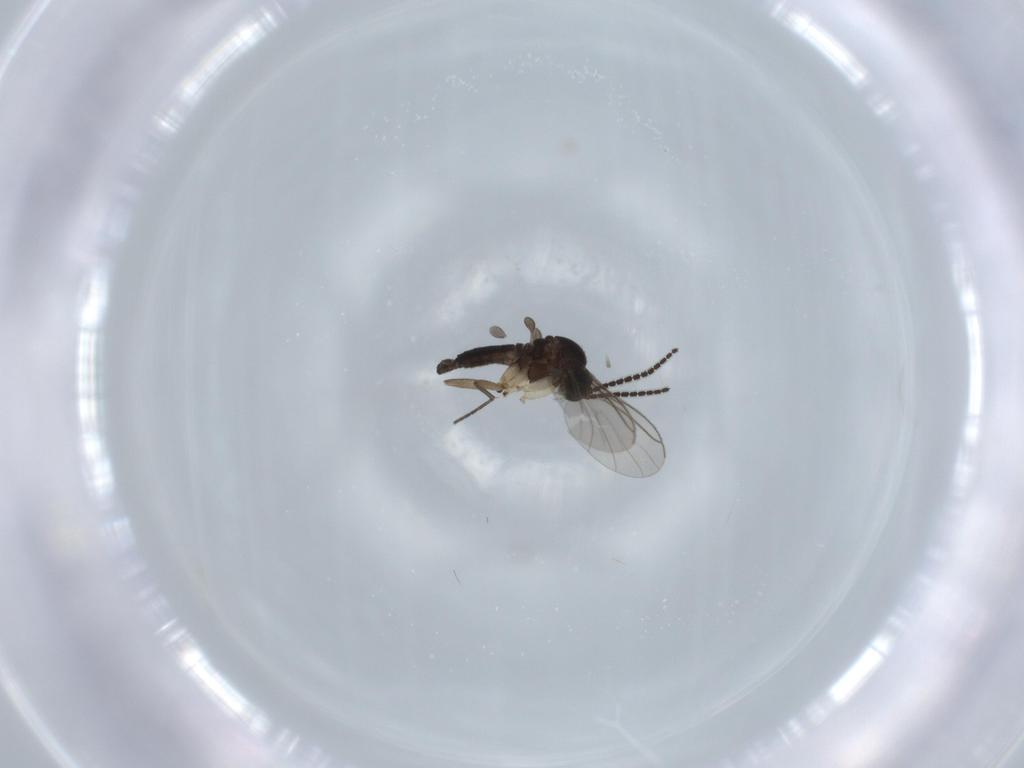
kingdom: Animalia
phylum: Arthropoda
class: Insecta
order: Diptera
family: Sciaridae
